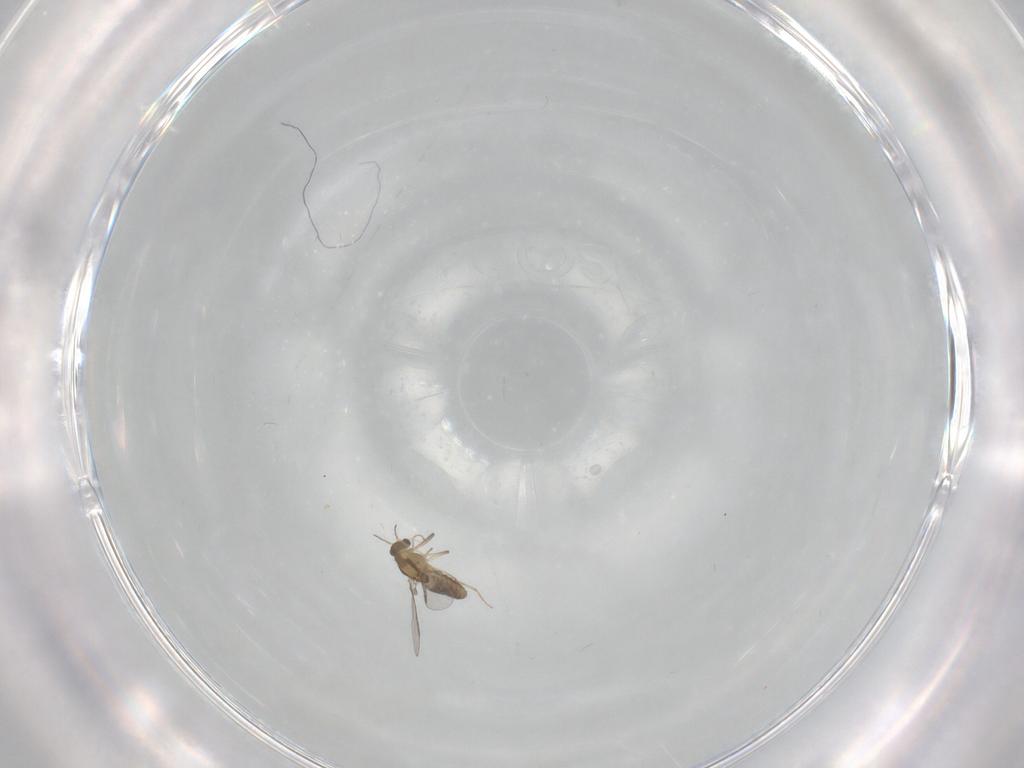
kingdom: Animalia
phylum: Arthropoda
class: Insecta
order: Diptera
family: Chironomidae
